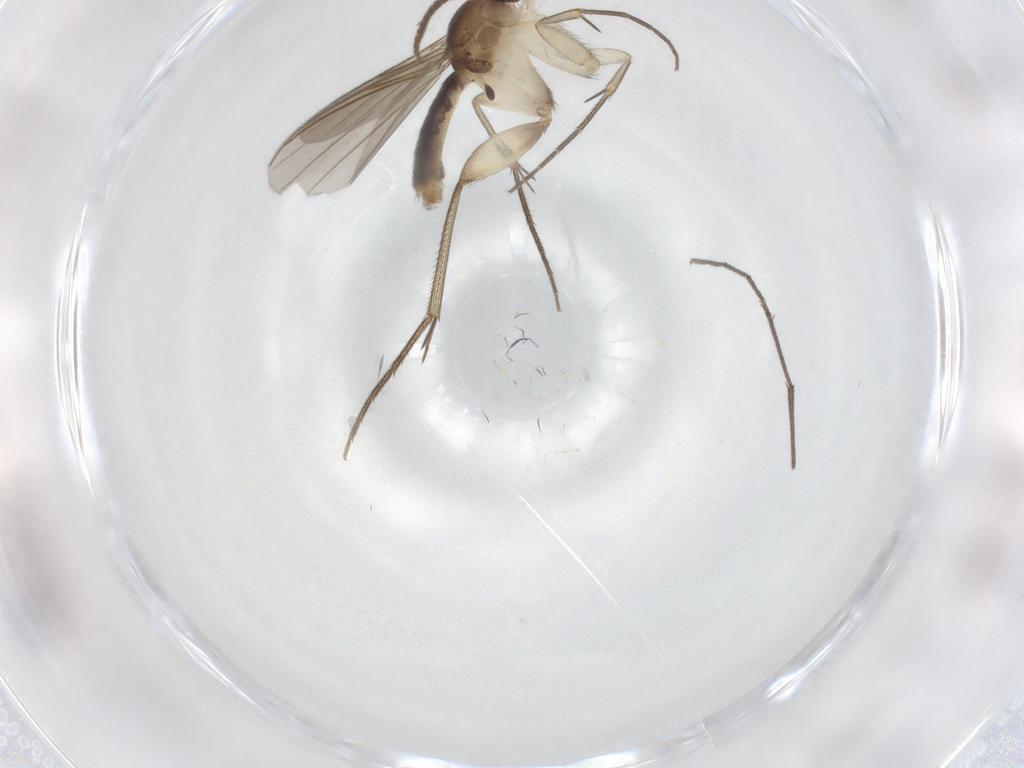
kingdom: Animalia
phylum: Arthropoda
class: Insecta
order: Diptera
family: Mycetophilidae
